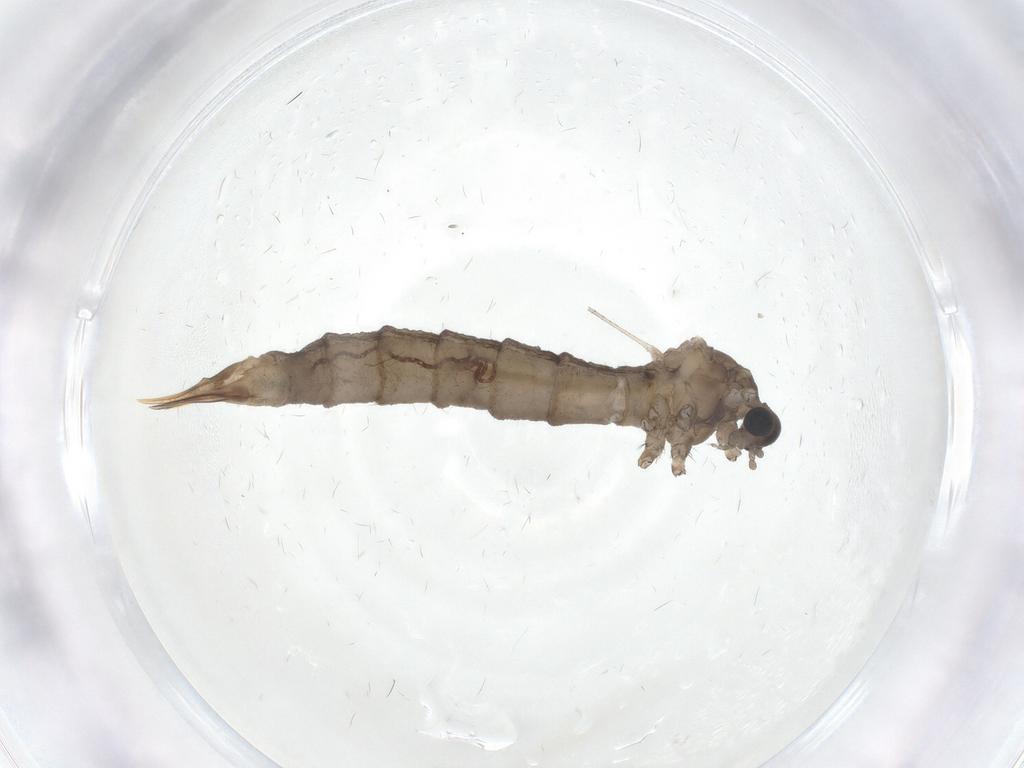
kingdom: Animalia
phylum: Arthropoda
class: Insecta
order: Diptera
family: Limoniidae
